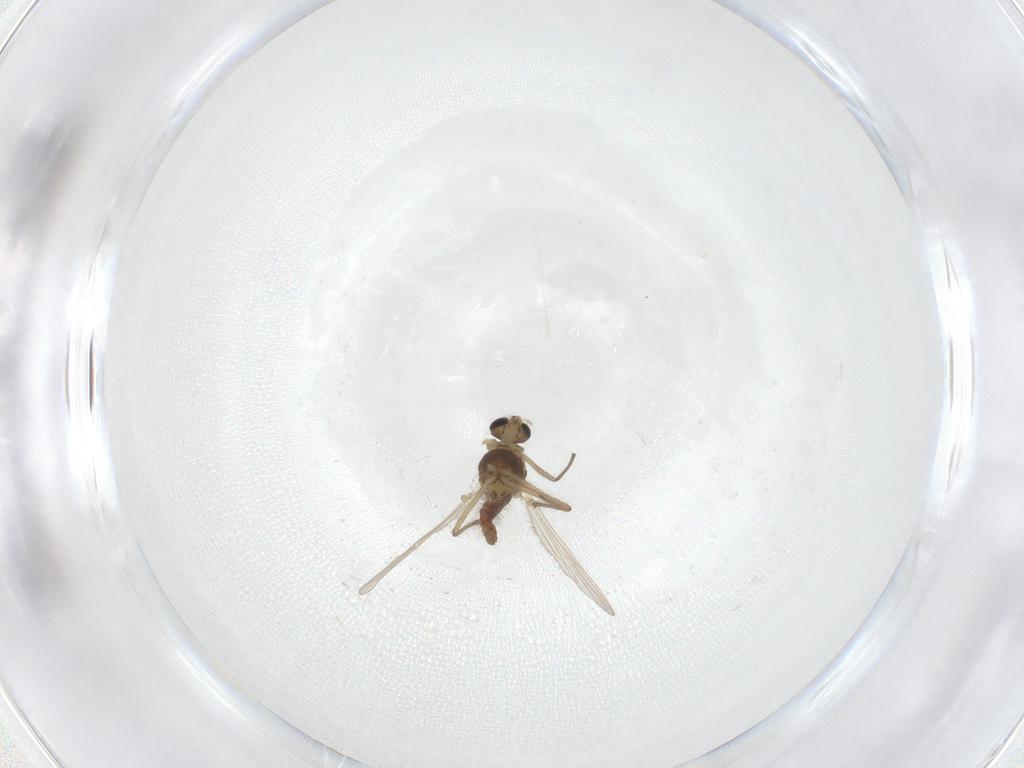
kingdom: Animalia
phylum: Arthropoda
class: Insecta
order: Diptera
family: Chironomidae
